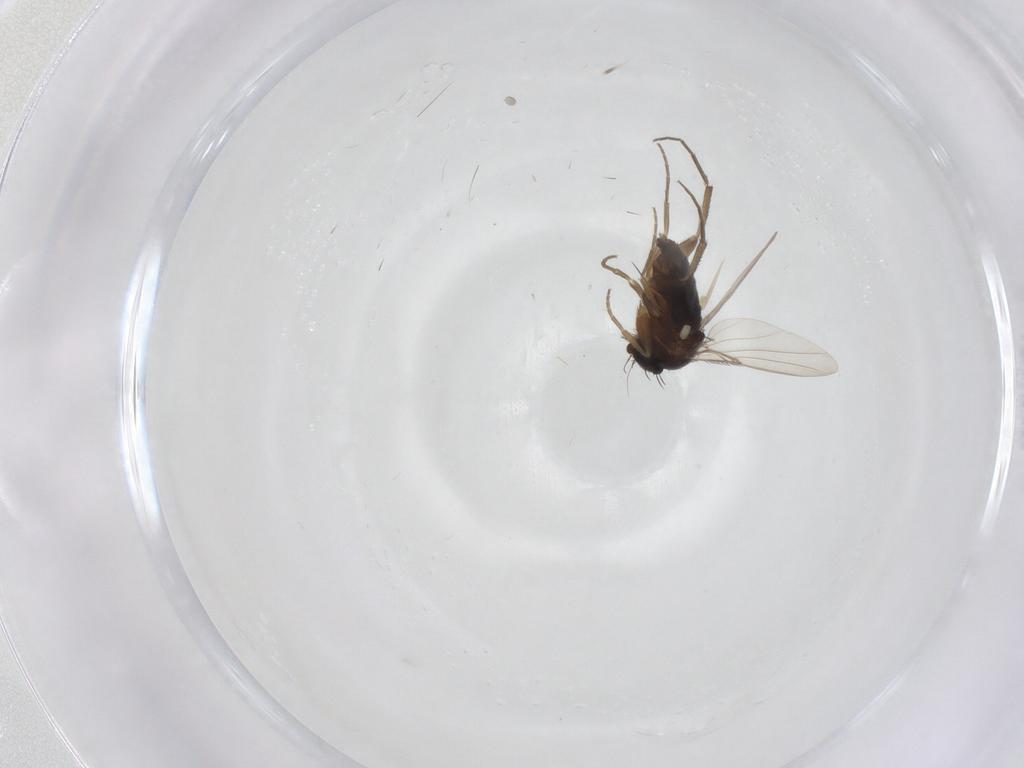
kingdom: Animalia
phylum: Arthropoda
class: Insecta
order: Diptera
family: Phoridae
